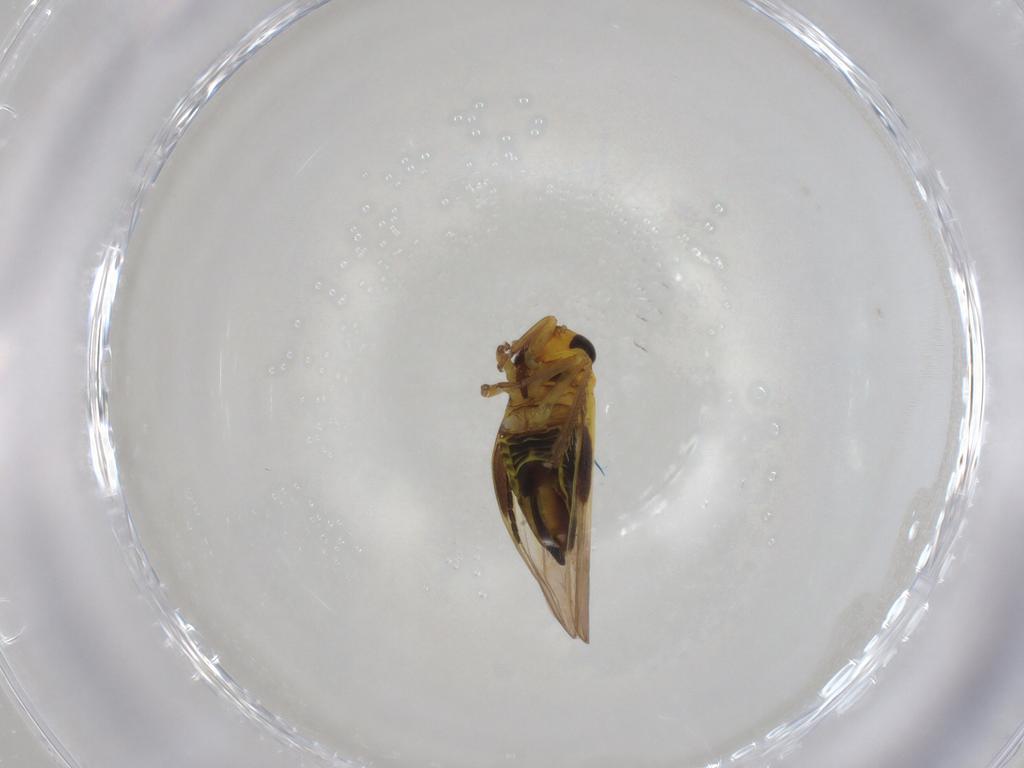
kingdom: Animalia
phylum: Arthropoda
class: Insecta
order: Hemiptera
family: Cicadellidae
